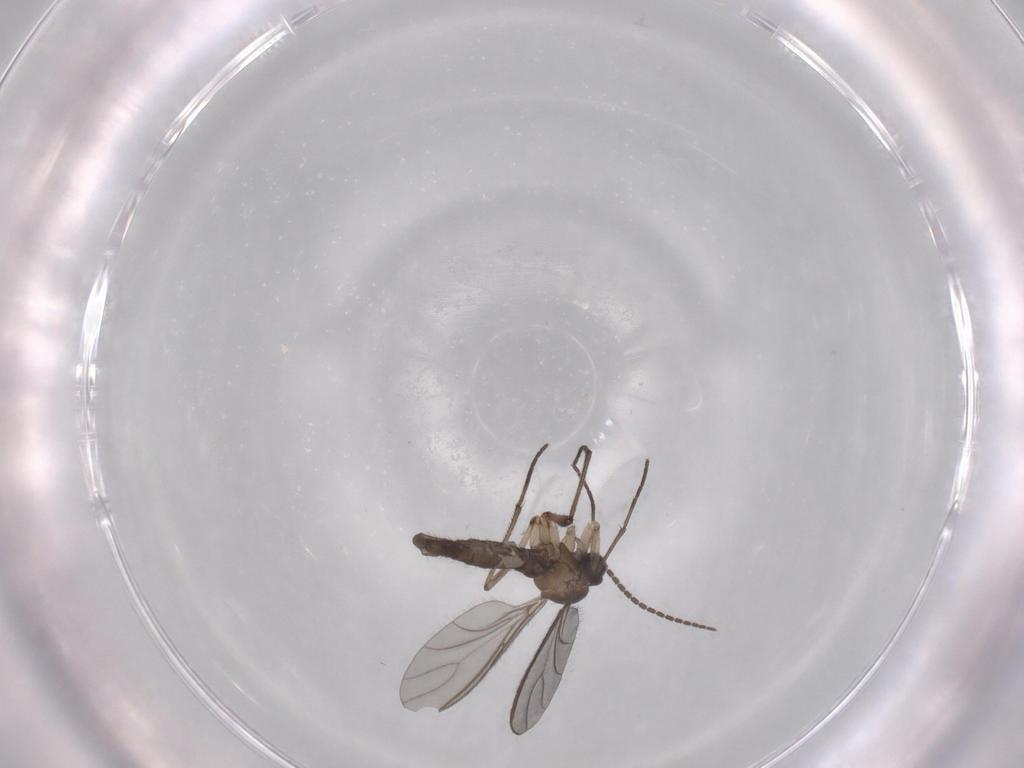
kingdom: Animalia
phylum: Arthropoda
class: Insecta
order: Diptera
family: Sciaridae
